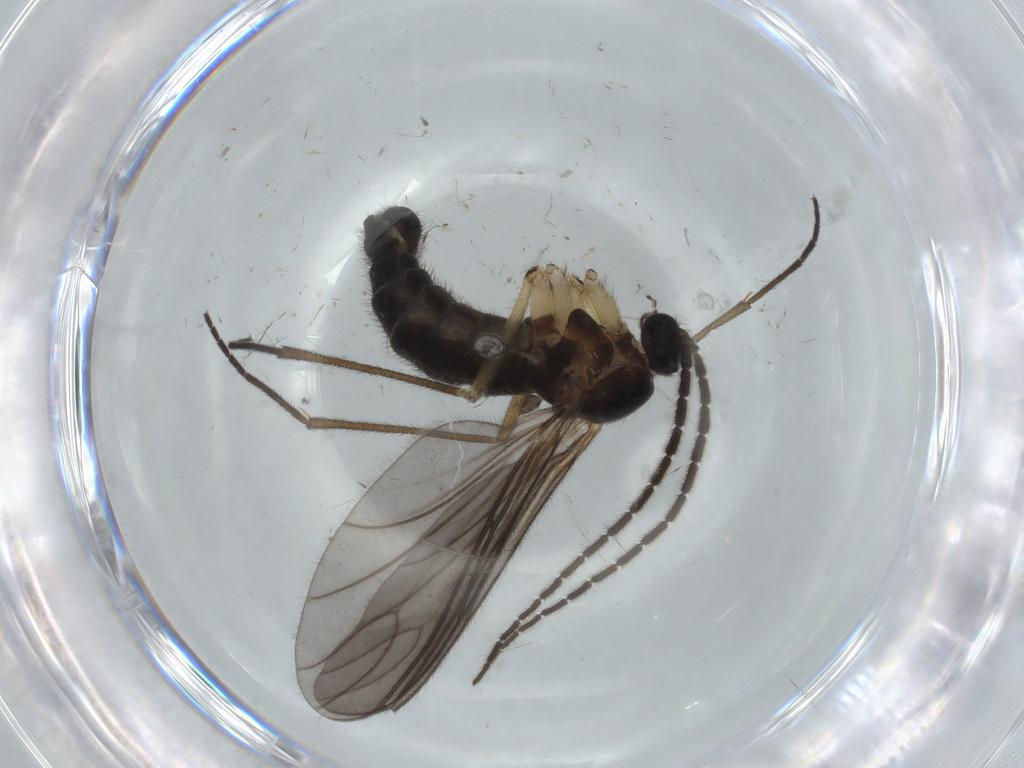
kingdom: Animalia
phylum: Arthropoda
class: Insecta
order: Diptera
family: Sciaridae
